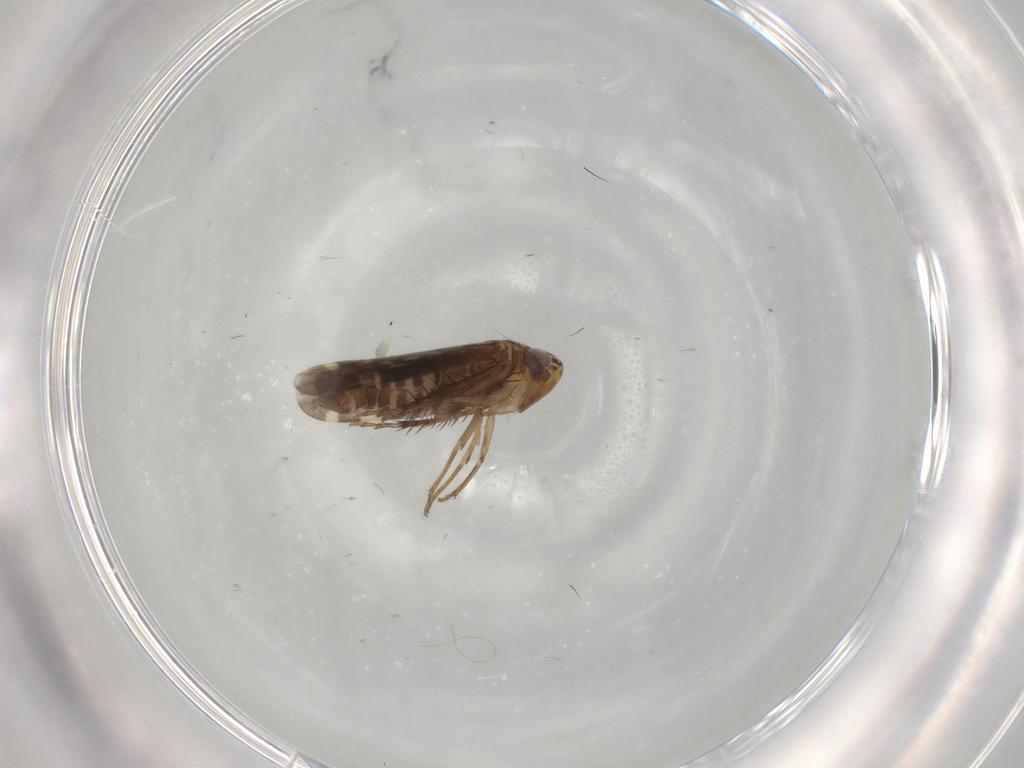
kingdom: Animalia
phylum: Arthropoda
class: Insecta
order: Hemiptera
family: Cicadellidae
